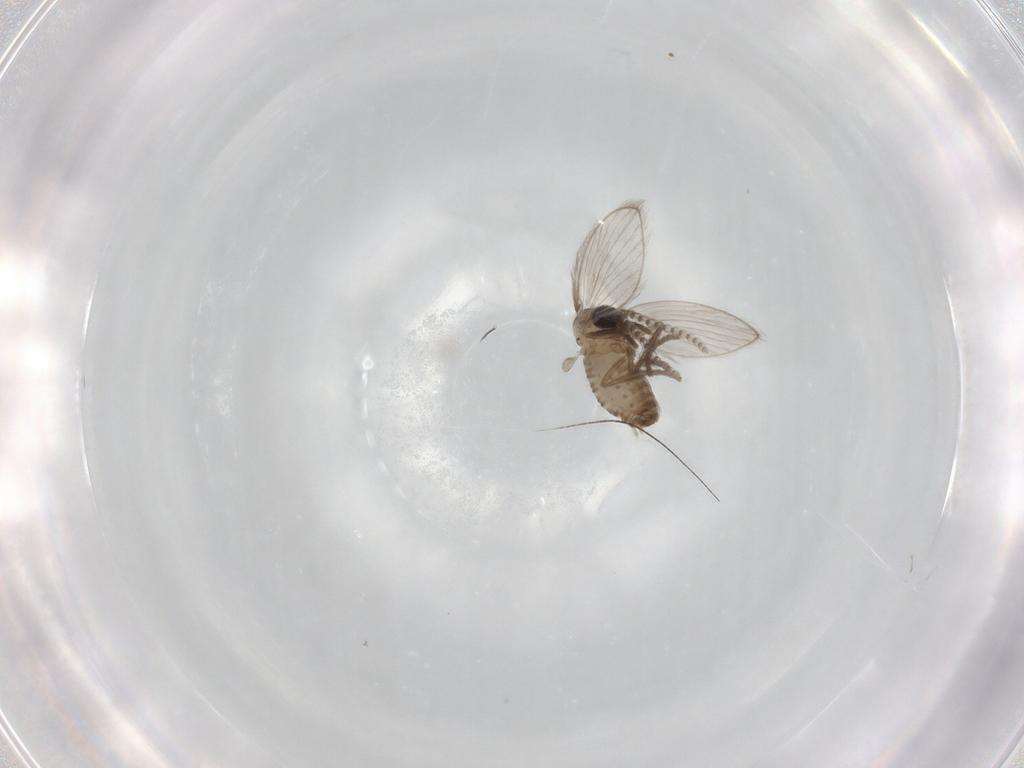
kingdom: Animalia
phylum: Arthropoda
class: Insecta
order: Diptera
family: Psychodidae
